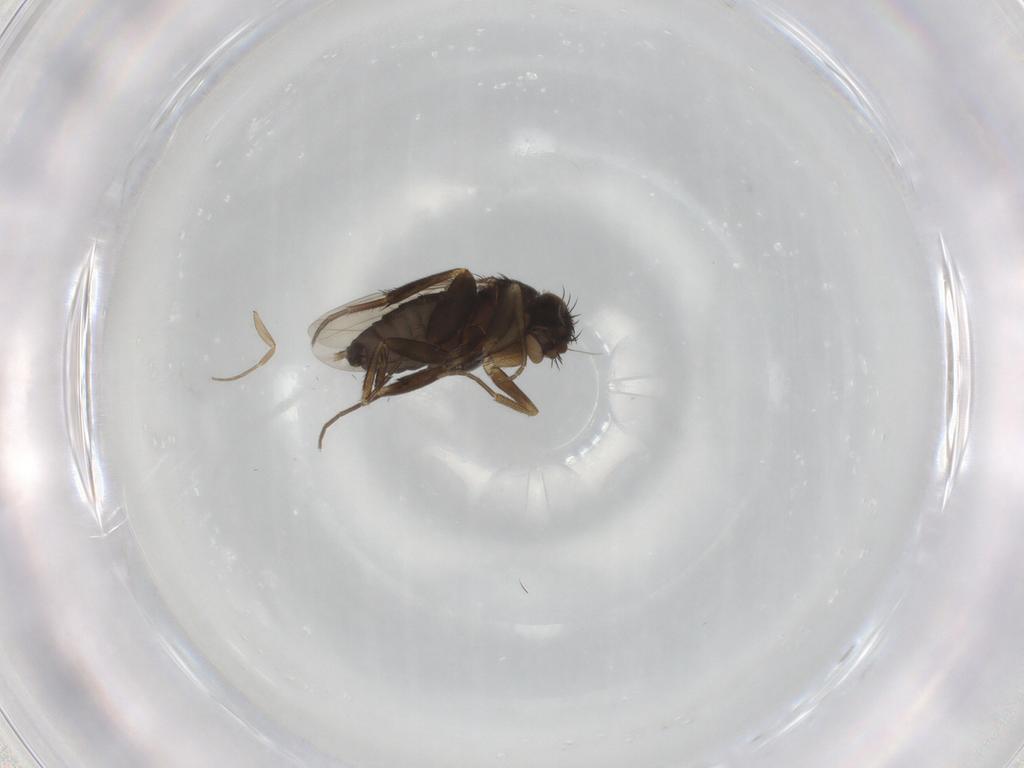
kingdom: Animalia
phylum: Arthropoda
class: Insecta
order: Diptera
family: Phoridae
